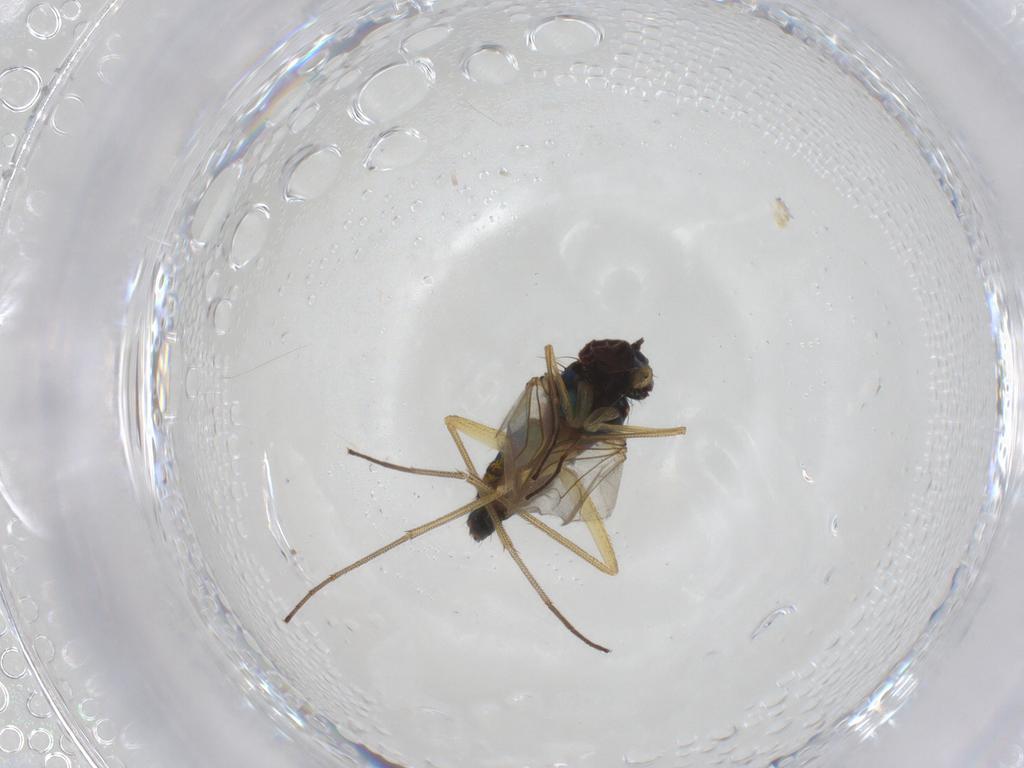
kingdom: Animalia
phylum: Arthropoda
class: Insecta
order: Diptera
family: Dolichopodidae
